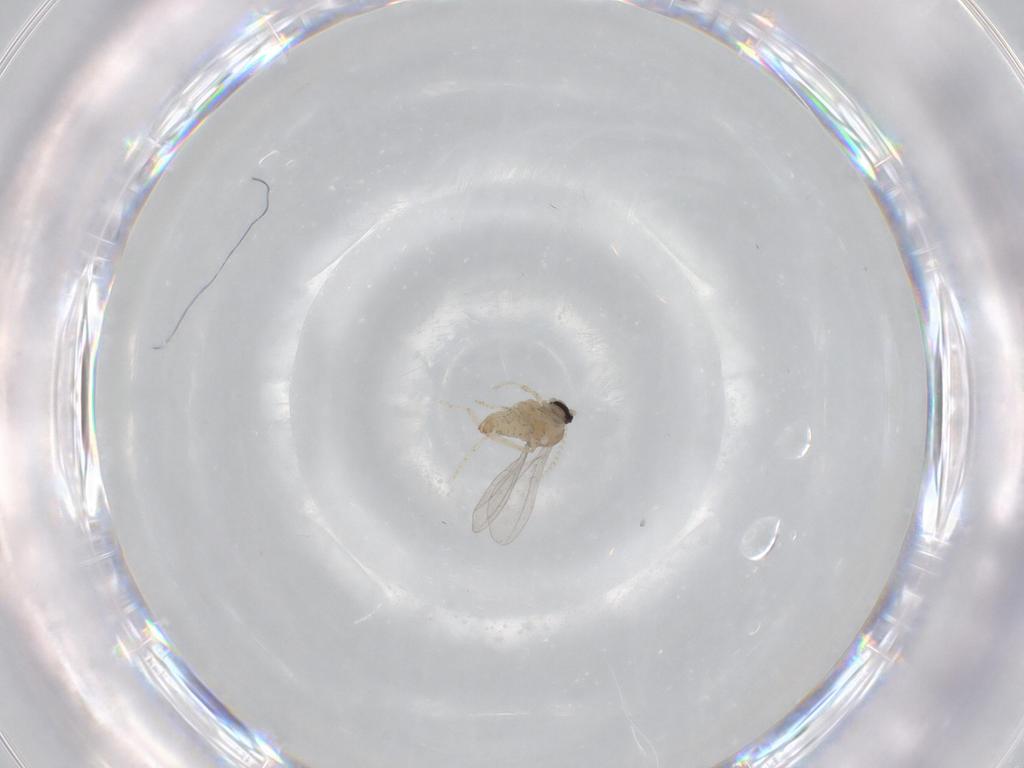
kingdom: Animalia
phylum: Arthropoda
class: Insecta
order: Diptera
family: Cecidomyiidae
